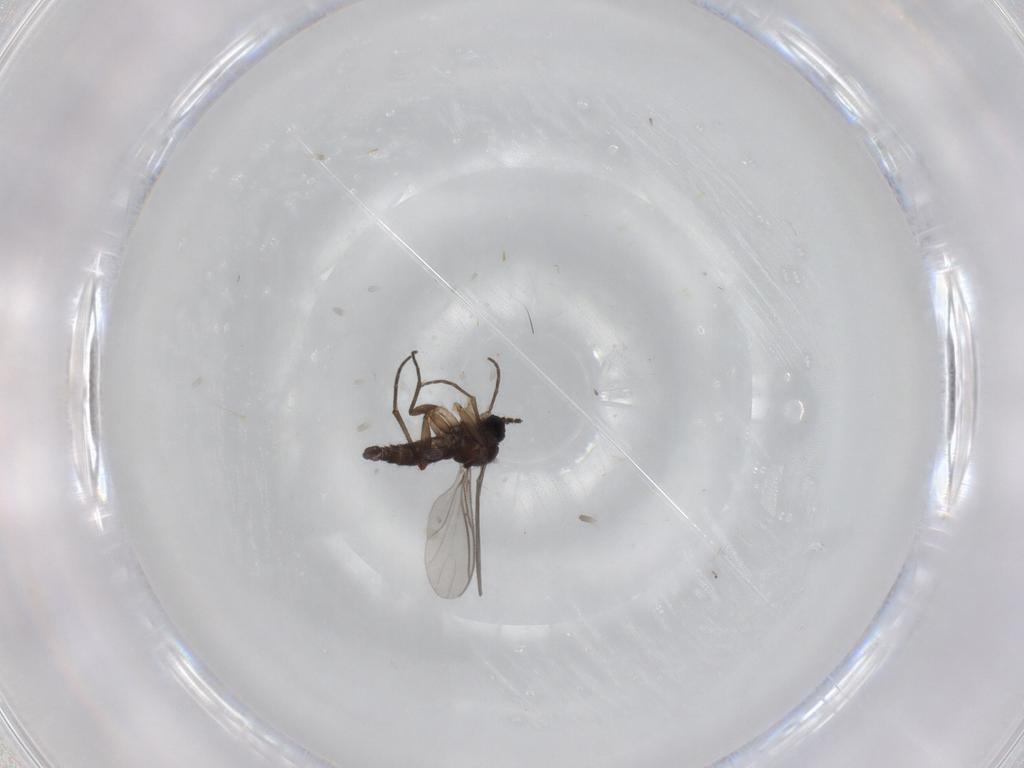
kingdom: Animalia
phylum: Arthropoda
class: Insecta
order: Diptera
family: Sciaridae
